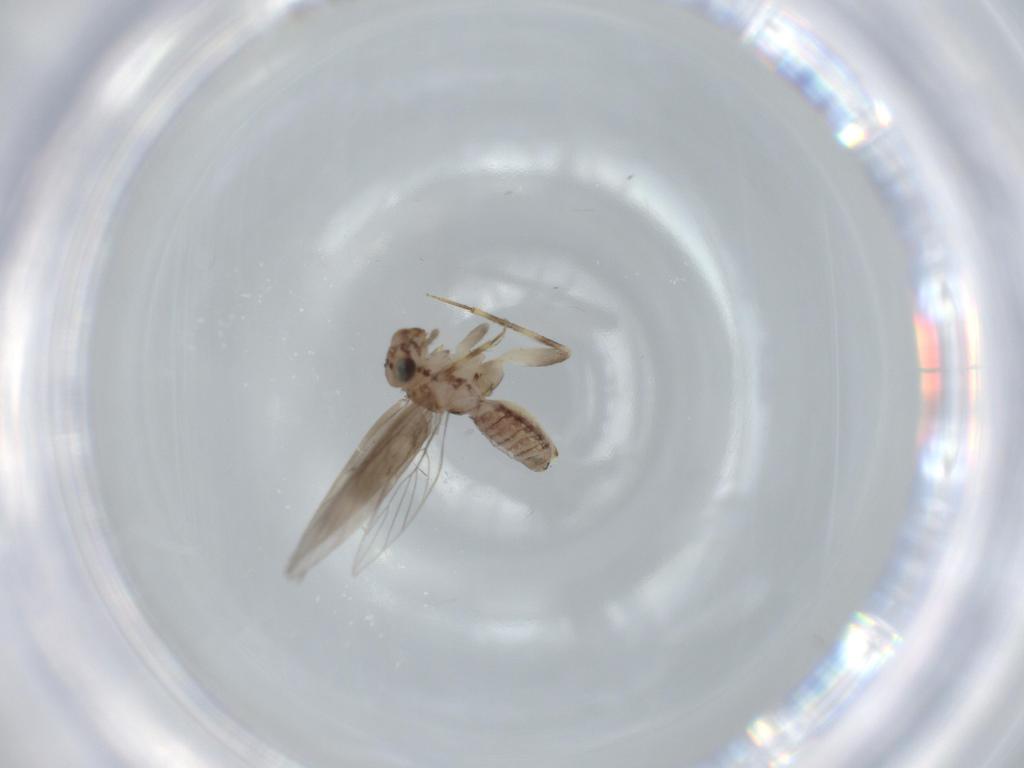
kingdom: Animalia
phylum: Arthropoda
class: Insecta
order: Psocodea
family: Lepidopsocidae
